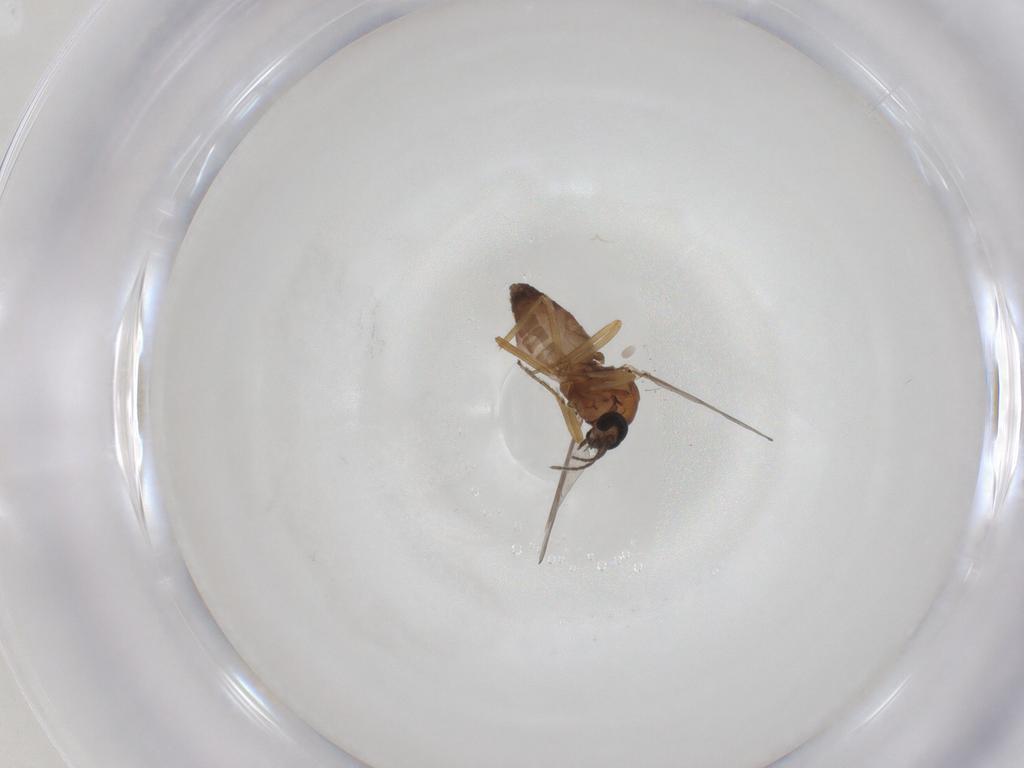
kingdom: Animalia
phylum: Arthropoda
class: Insecta
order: Diptera
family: Ceratopogonidae
